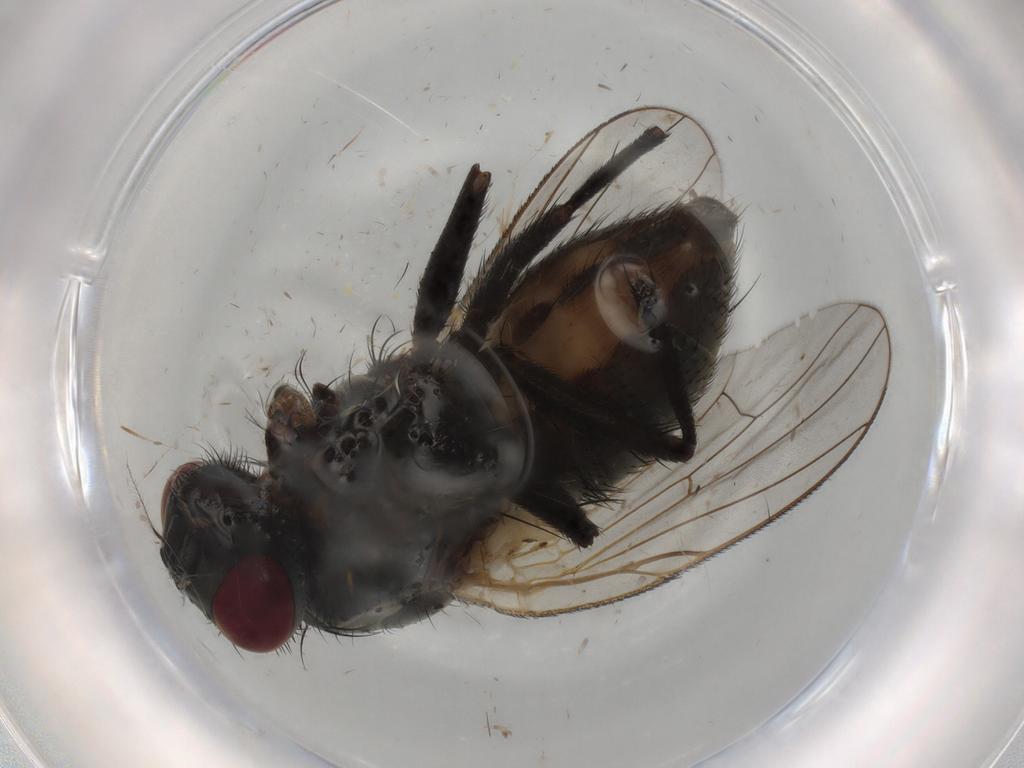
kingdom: Animalia
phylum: Arthropoda
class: Insecta
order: Diptera
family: Muscidae
